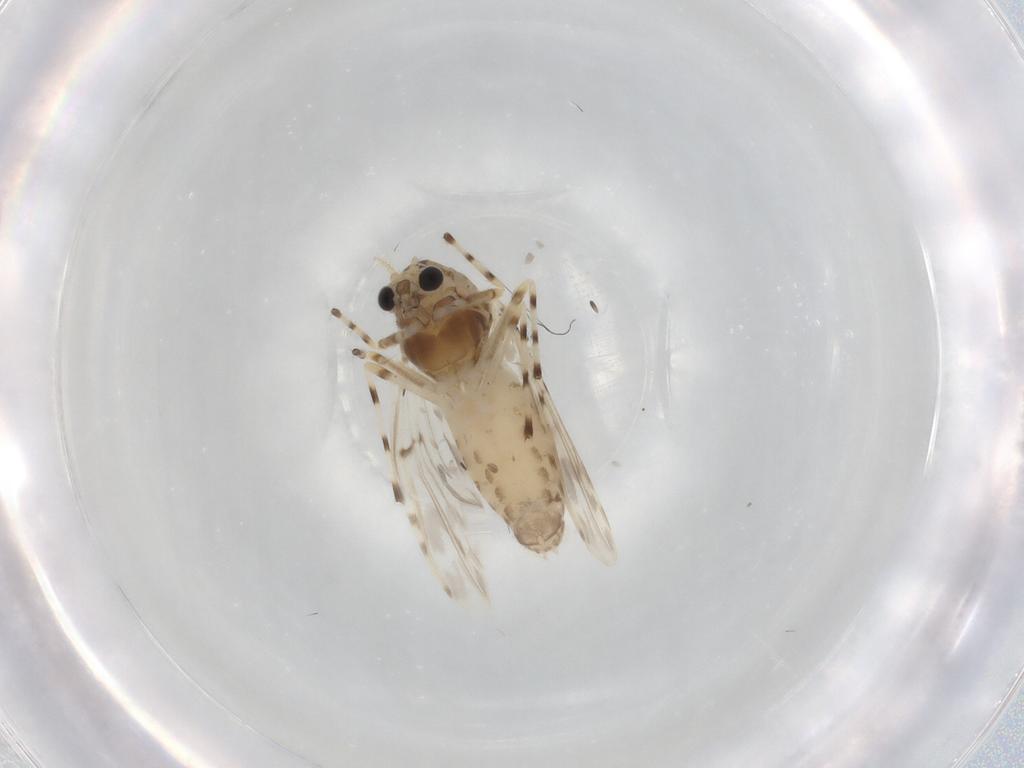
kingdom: Animalia
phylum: Arthropoda
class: Insecta
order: Diptera
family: Chironomidae
